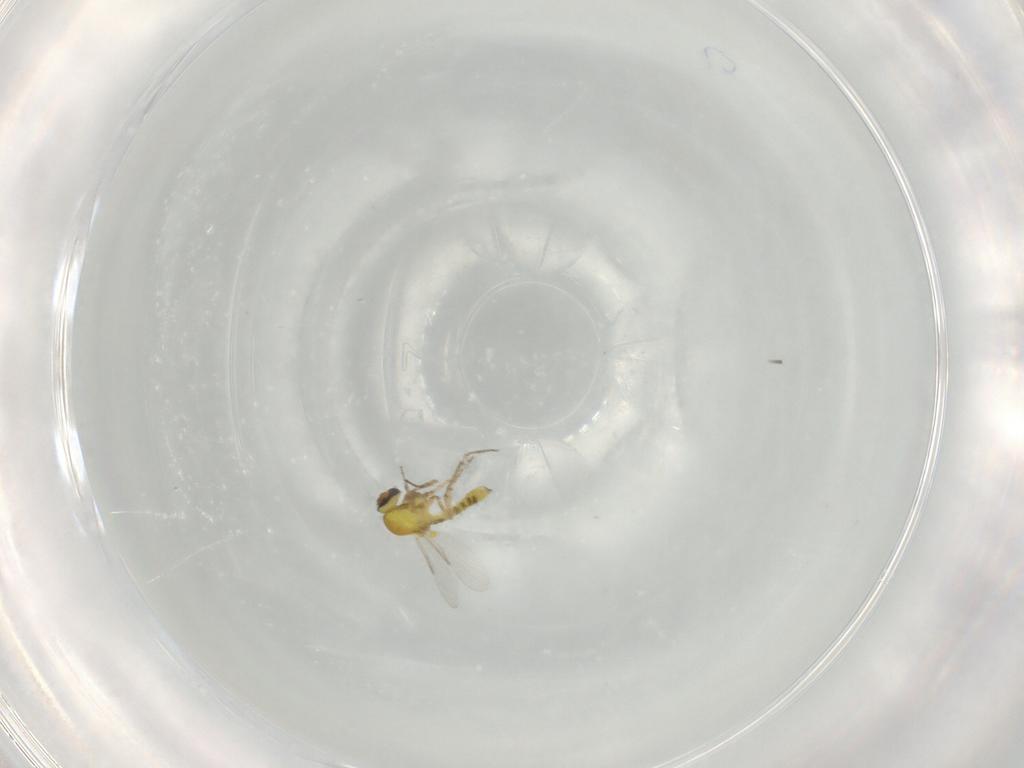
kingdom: Animalia
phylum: Arthropoda
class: Insecta
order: Diptera
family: Ceratopogonidae
